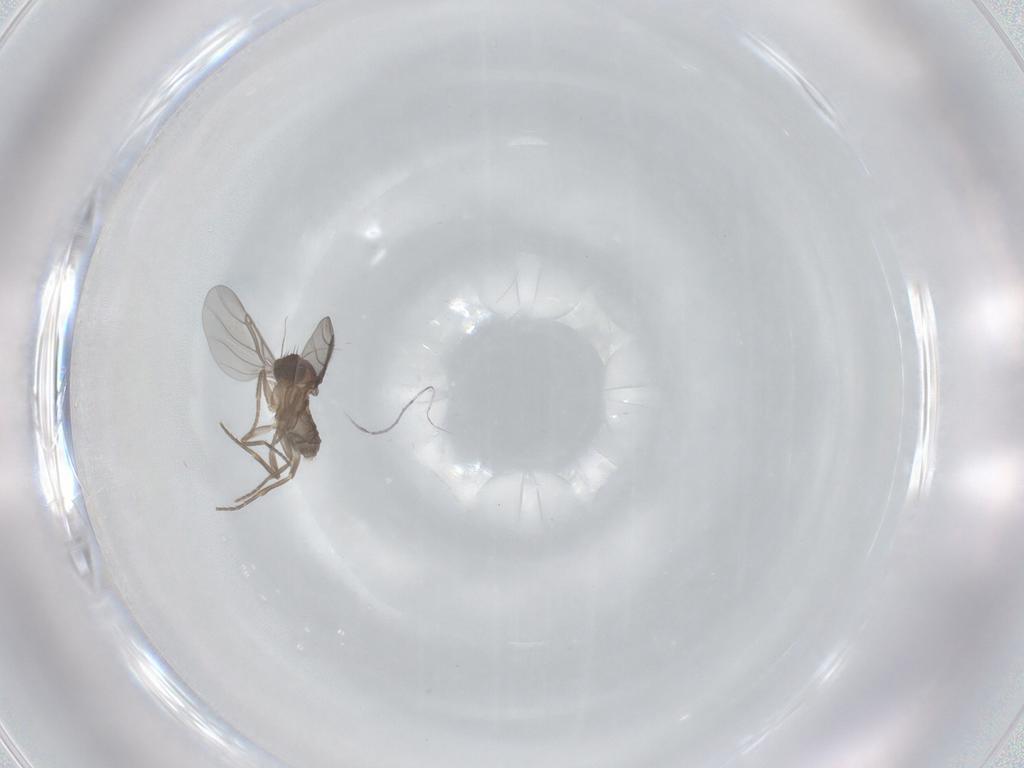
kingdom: Animalia
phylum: Arthropoda
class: Insecta
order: Diptera
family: Phoridae
